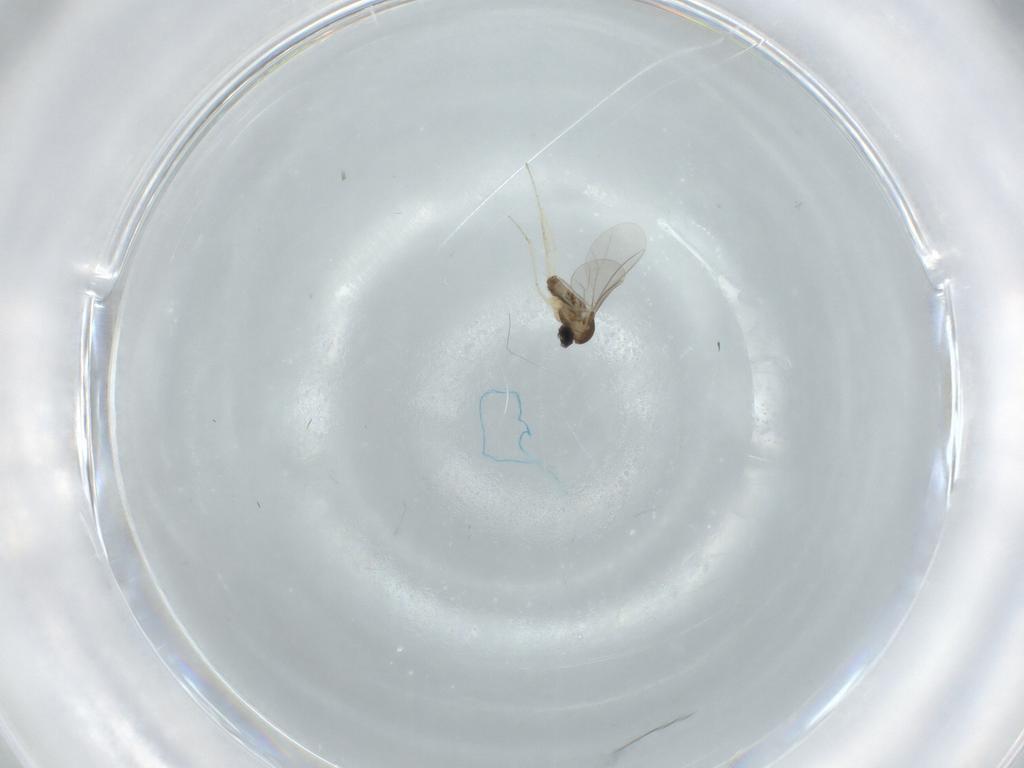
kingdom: Animalia
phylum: Arthropoda
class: Insecta
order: Diptera
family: Cecidomyiidae
